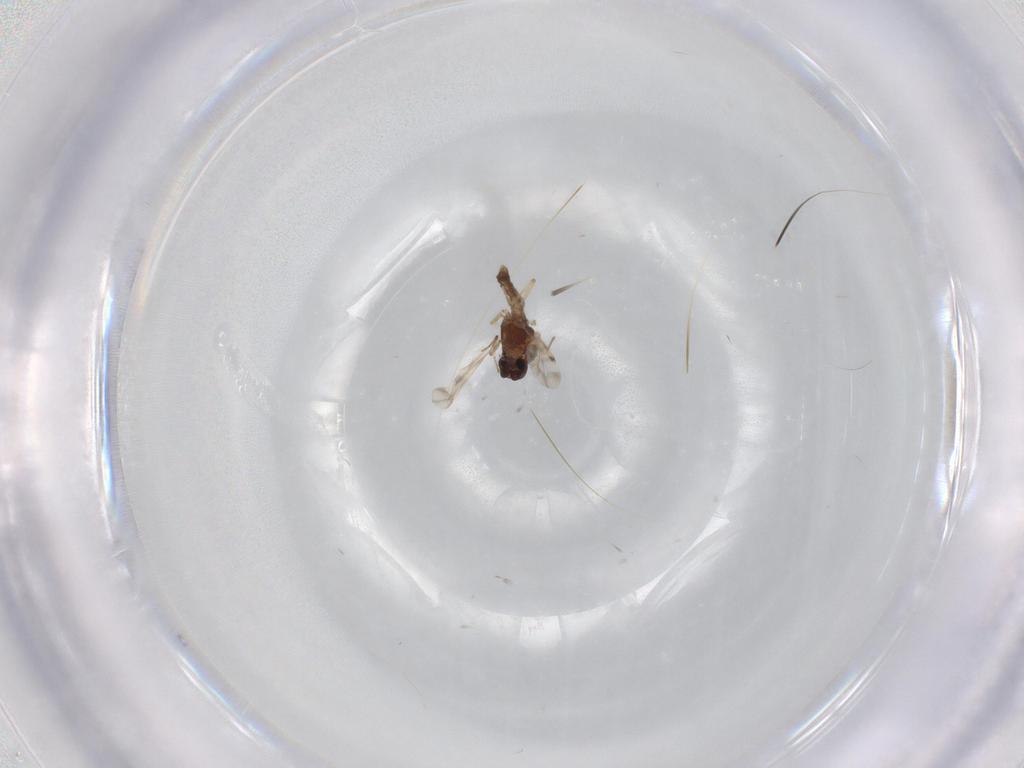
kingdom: Animalia
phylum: Arthropoda
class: Insecta
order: Diptera
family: Ceratopogonidae
